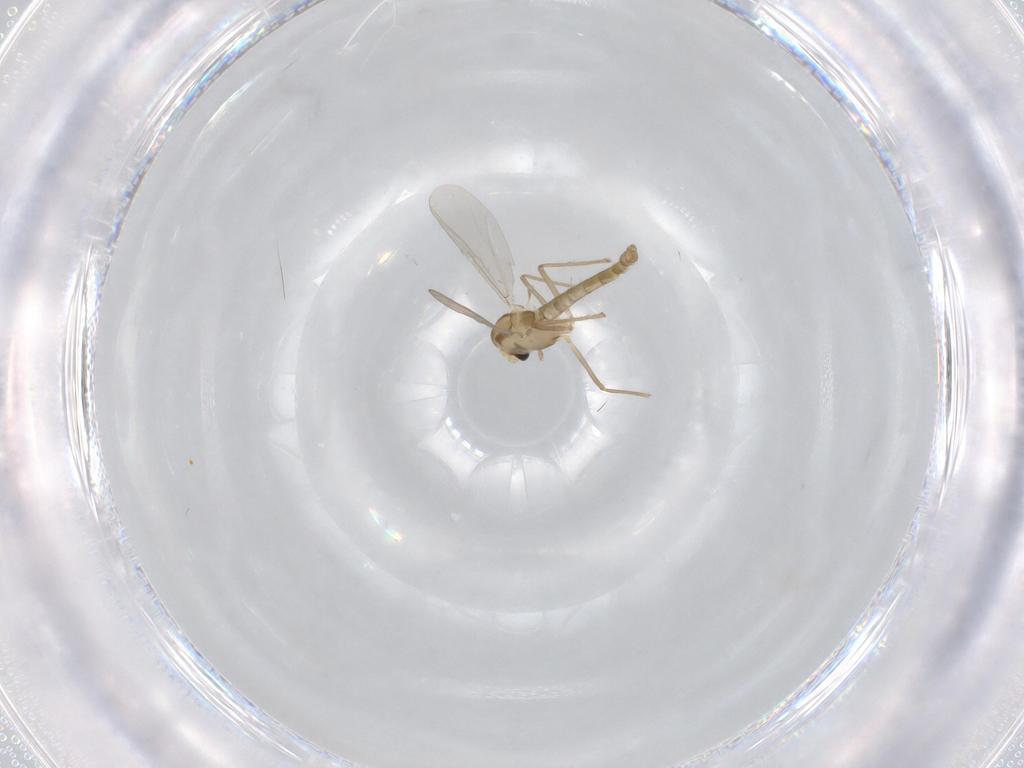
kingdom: Animalia
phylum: Arthropoda
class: Insecta
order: Diptera
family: Chironomidae
